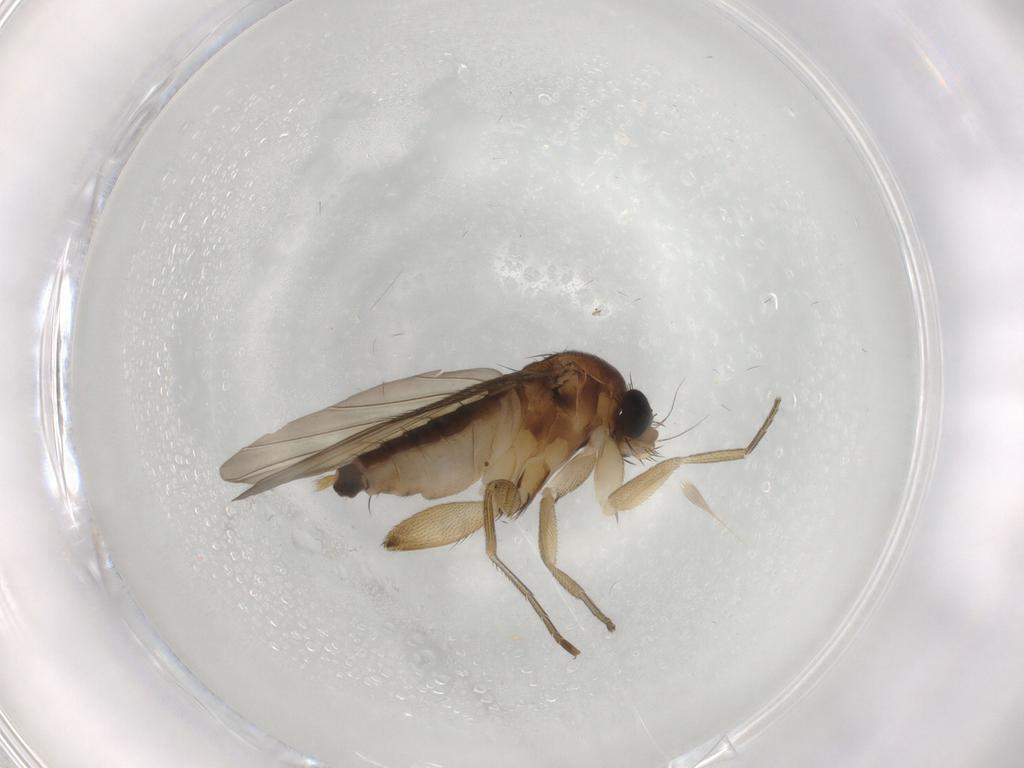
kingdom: Animalia
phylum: Arthropoda
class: Insecta
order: Diptera
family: Phoridae
